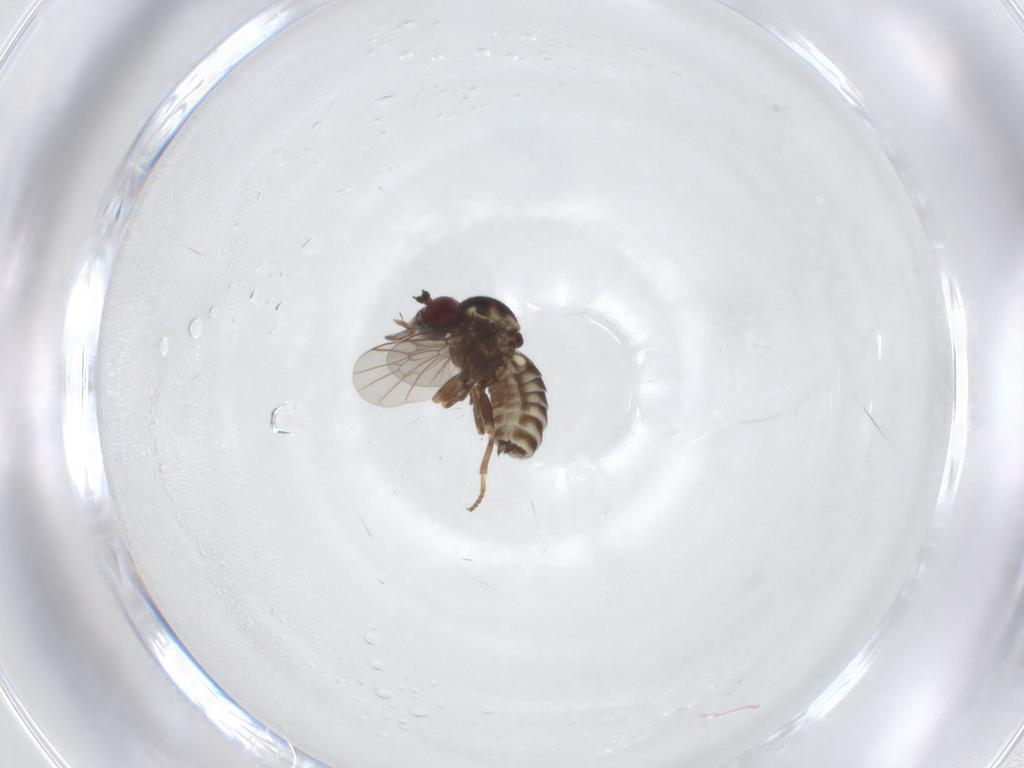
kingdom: Animalia
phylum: Arthropoda
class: Insecta
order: Diptera
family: Bombyliidae
